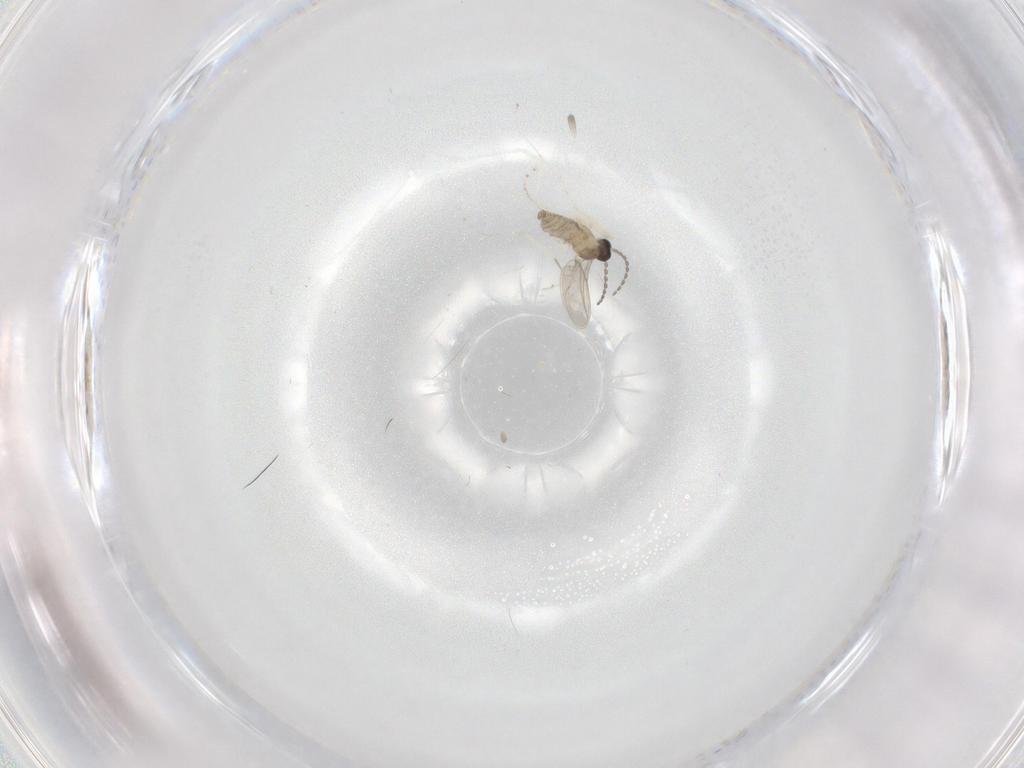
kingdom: Animalia
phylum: Arthropoda
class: Insecta
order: Diptera
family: Cecidomyiidae
